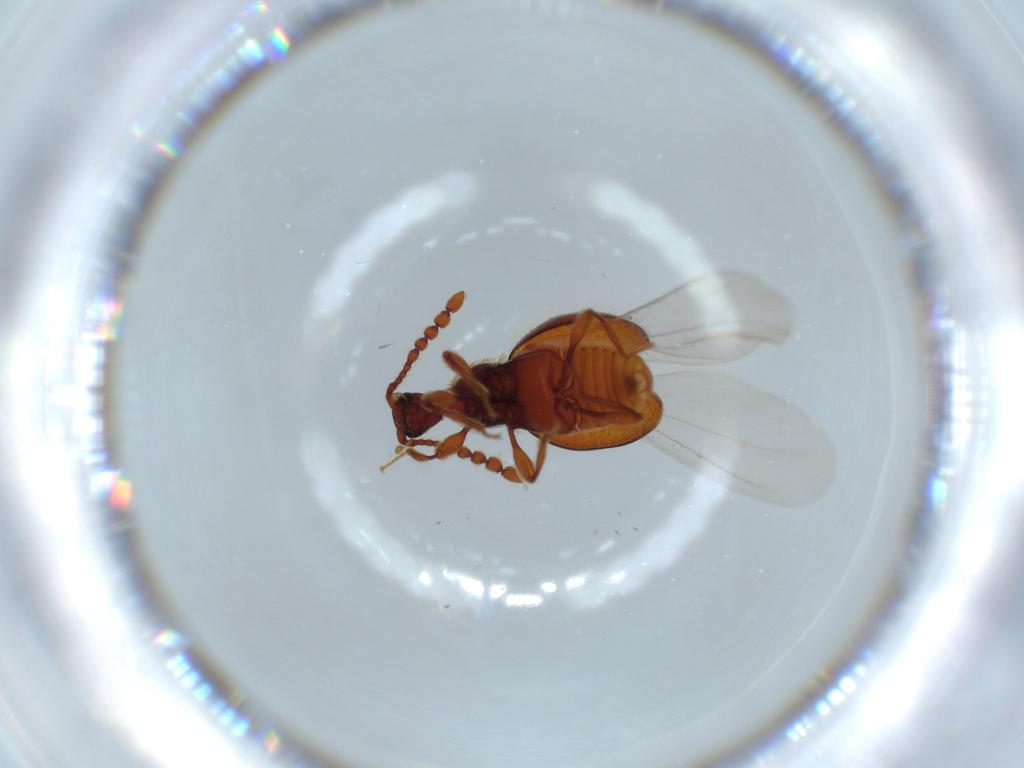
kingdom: Animalia
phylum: Arthropoda
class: Insecta
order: Coleoptera
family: Chrysomelidae
